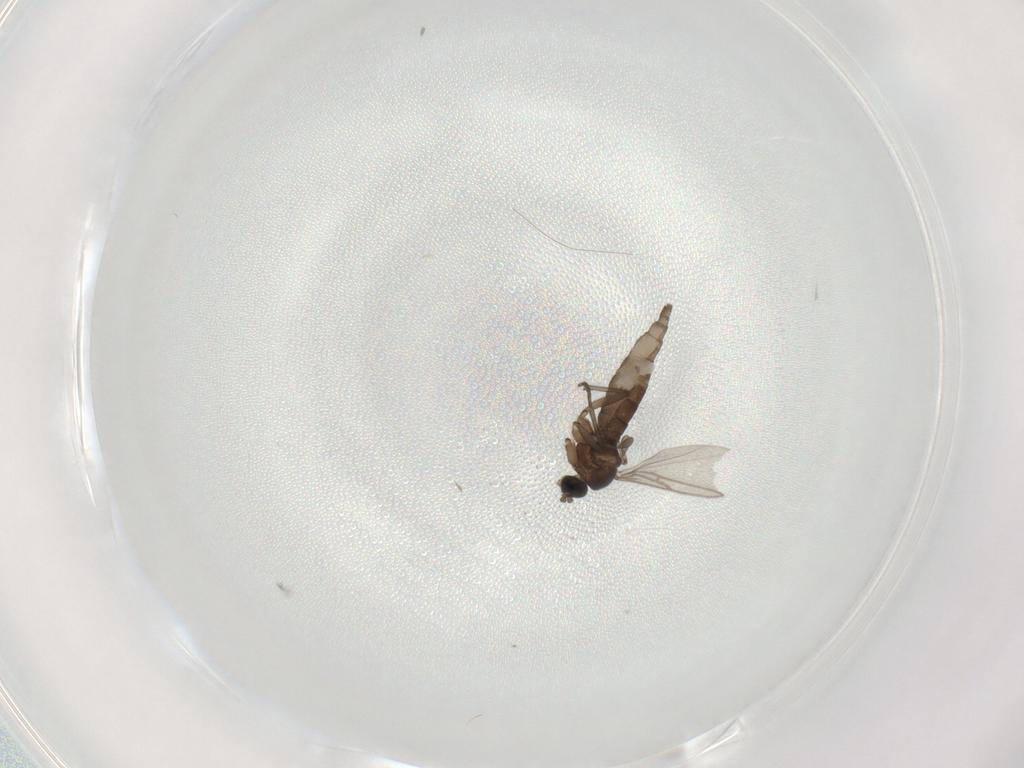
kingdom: Animalia
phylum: Arthropoda
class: Insecta
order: Diptera
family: Cecidomyiidae
